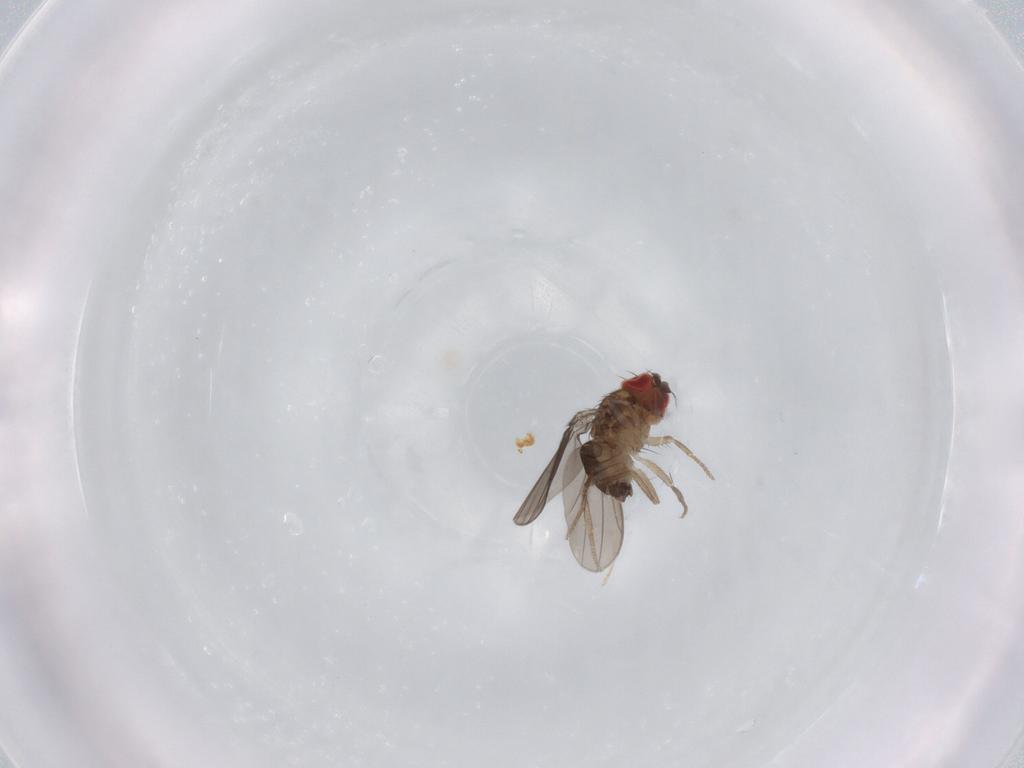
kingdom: Animalia
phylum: Arthropoda
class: Insecta
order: Diptera
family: Drosophilidae
